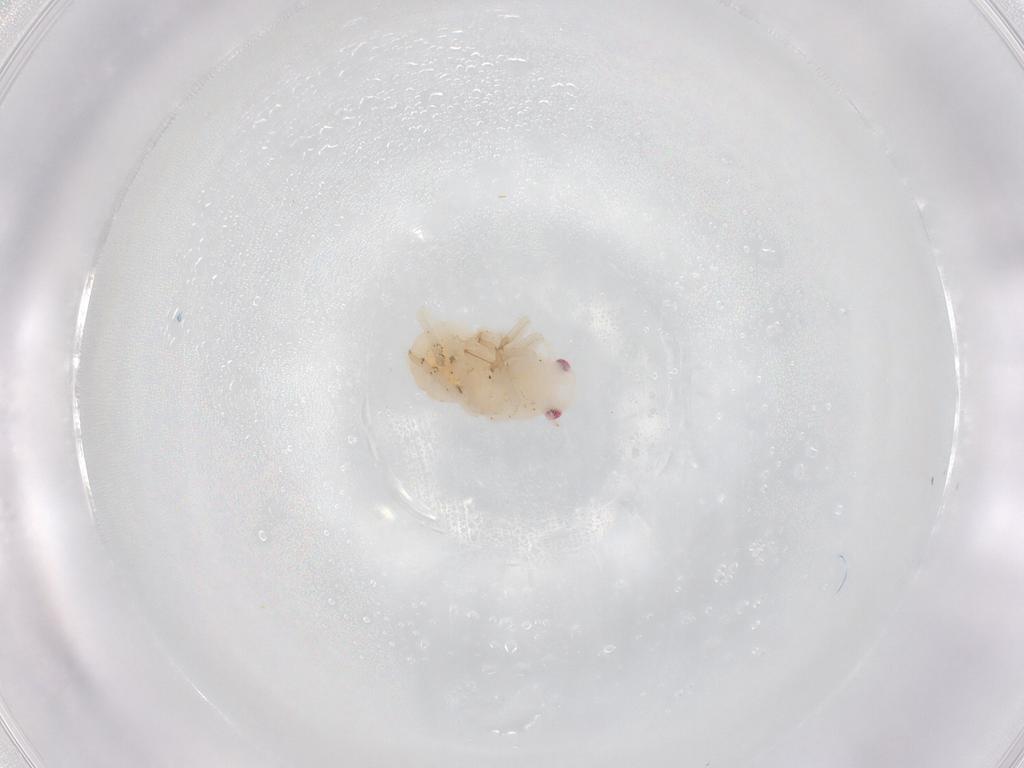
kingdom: Animalia
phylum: Arthropoda
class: Insecta
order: Hemiptera
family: Flatidae
